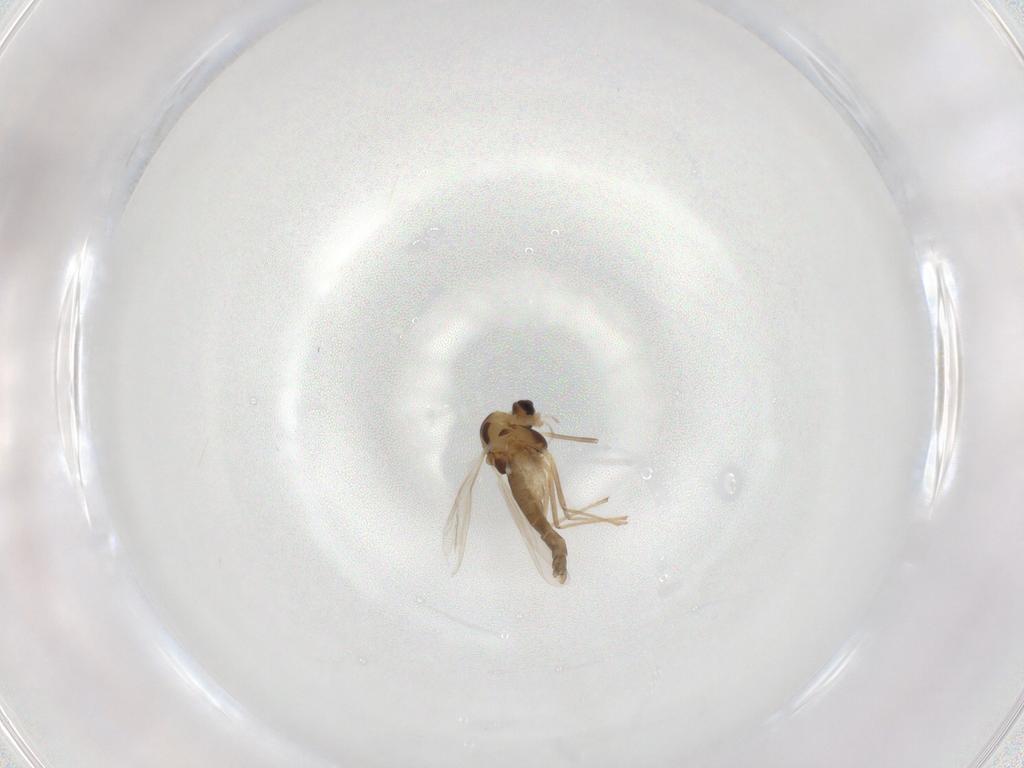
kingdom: Animalia
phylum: Arthropoda
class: Insecta
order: Diptera
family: Chironomidae
